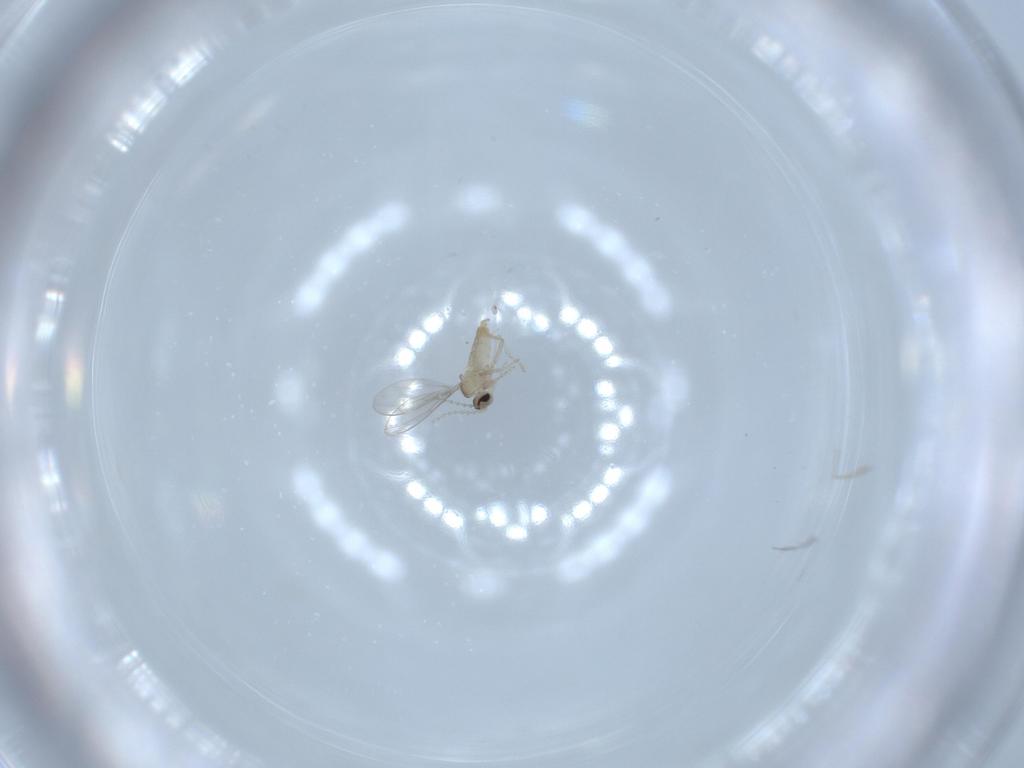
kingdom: Animalia
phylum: Arthropoda
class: Insecta
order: Diptera
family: Cecidomyiidae
